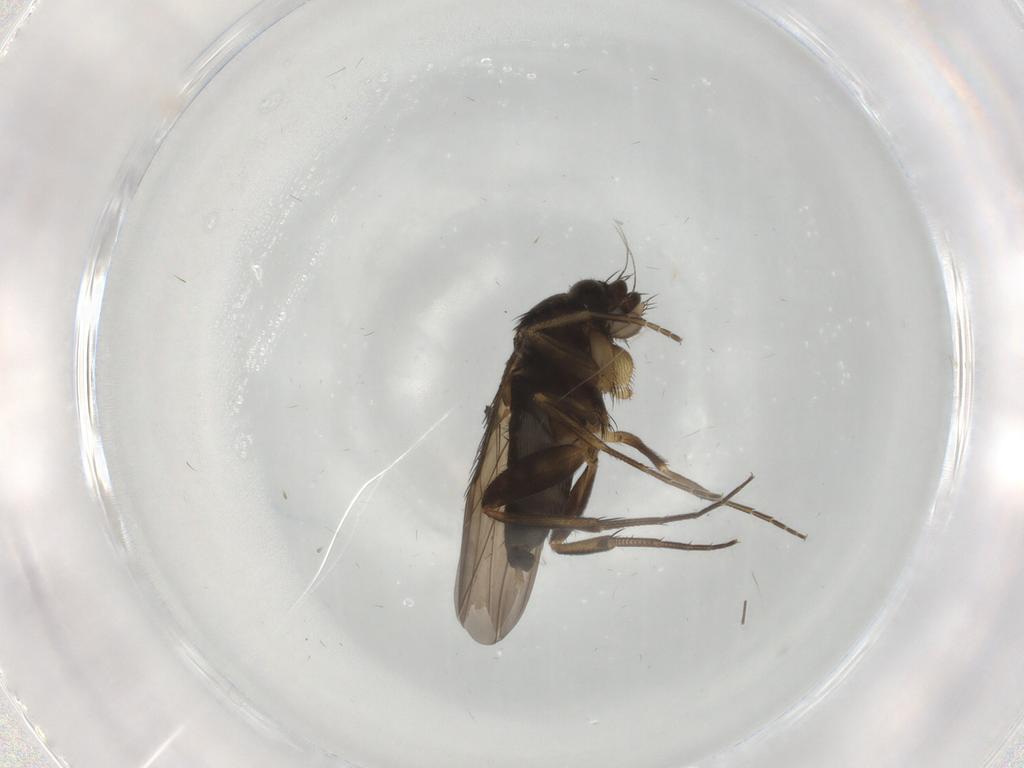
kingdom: Animalia
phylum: Arthropoda
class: Insecta
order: Diptera
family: Phoridae
